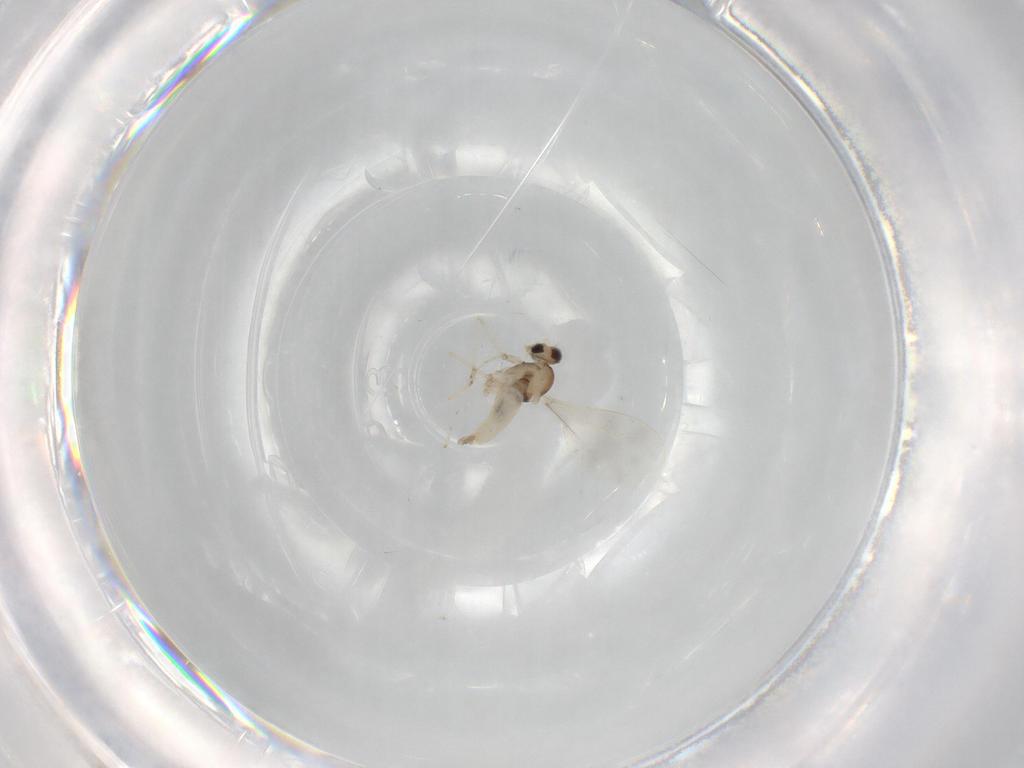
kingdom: Animalia
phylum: Arthropoda
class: Insecta
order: Diptera
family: Cecidomyiidae
